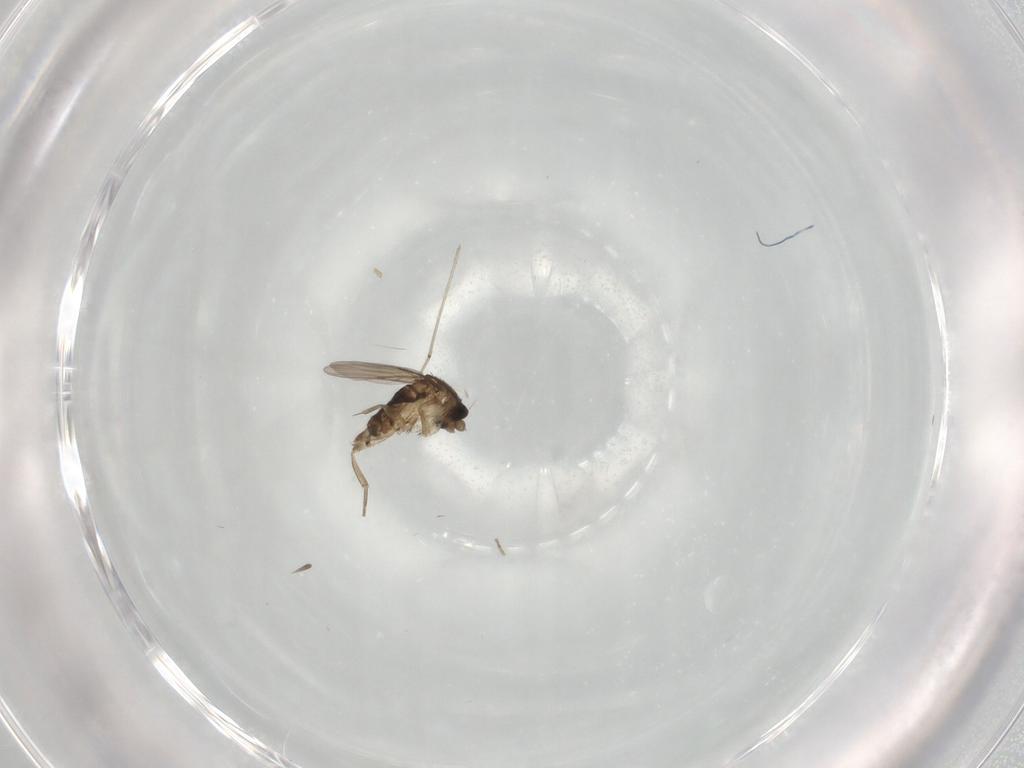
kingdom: Animalia
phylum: Arthropoda
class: Insecta
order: Diptera
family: Phoridae
